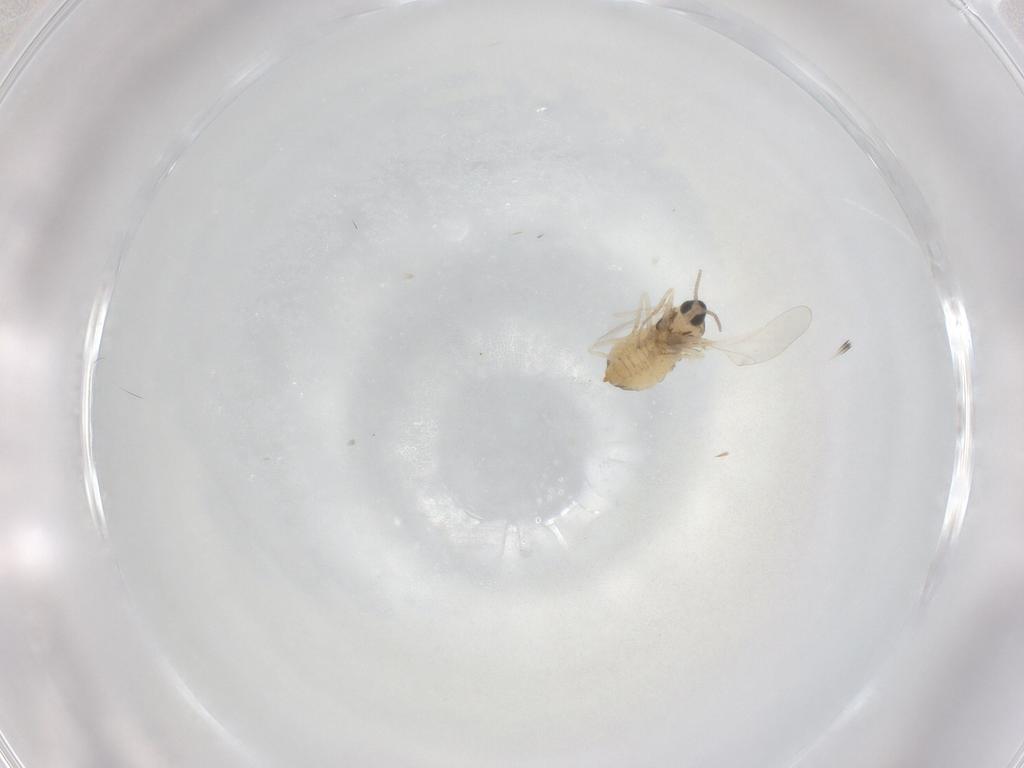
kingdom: Animalia
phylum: Arthropoda
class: Insecta
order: Diptera
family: Cecidomyiidae
